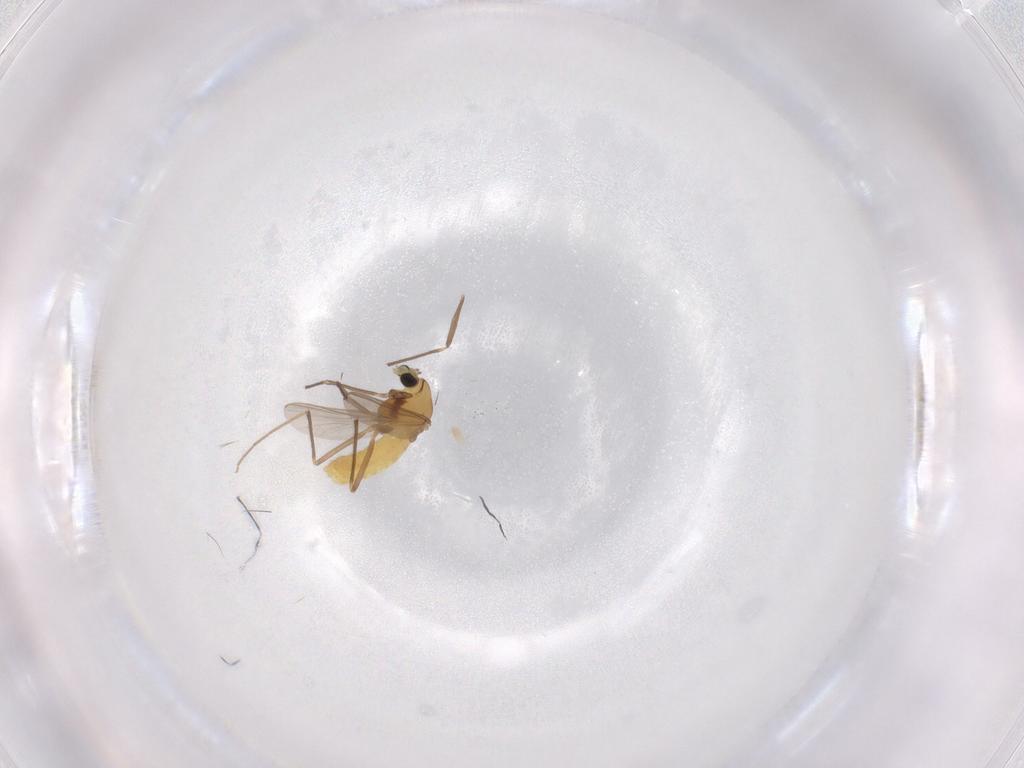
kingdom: Animalia
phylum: Arthropoda
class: Insecta
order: Diptera
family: Chironomidae
